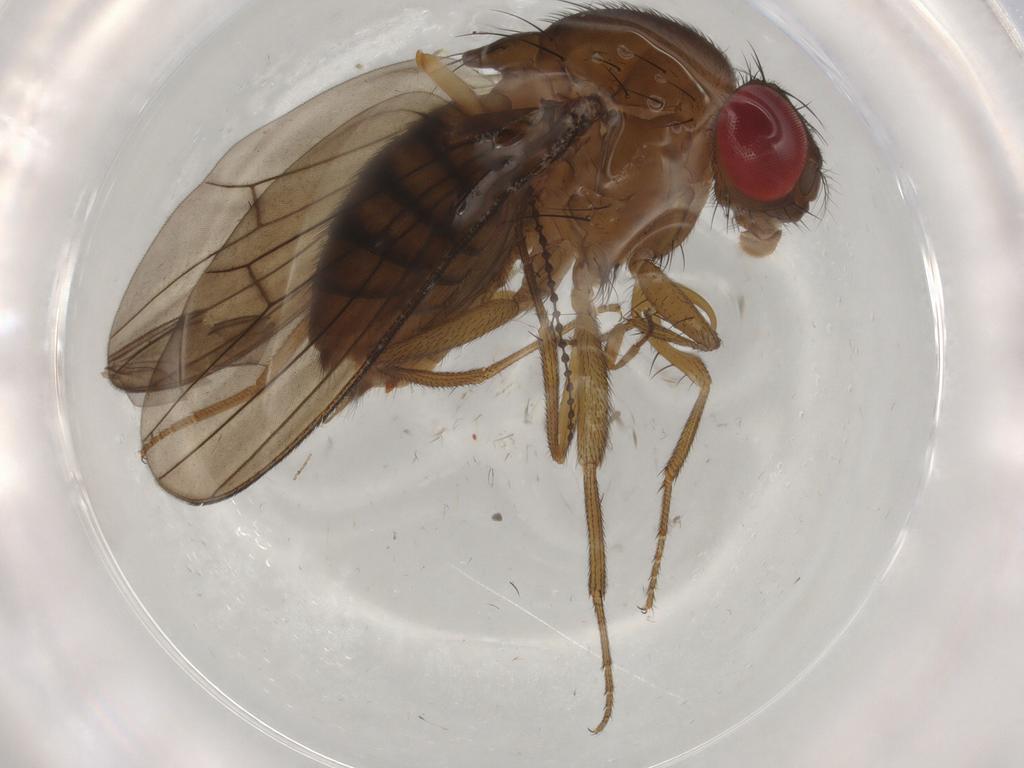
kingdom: Animalia
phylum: Arthropoda
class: Insecta
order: Diptera
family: Drosophilidae
